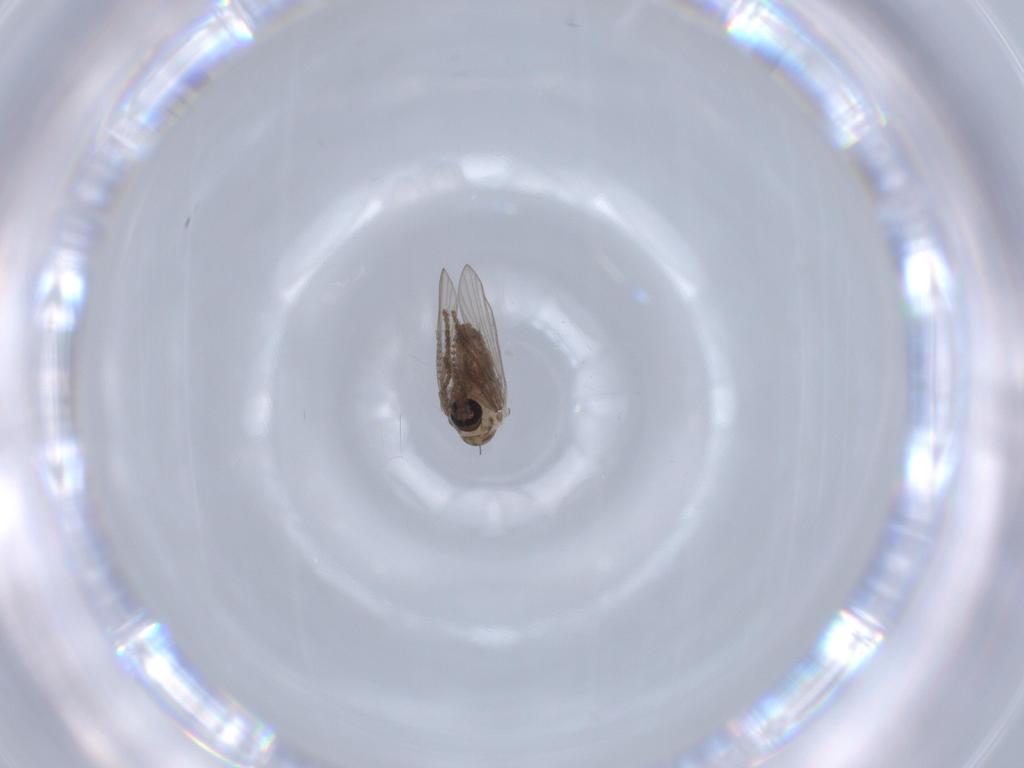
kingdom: Animalia
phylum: Arthropoda
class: Insecta
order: Diptera
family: Psychodidae
